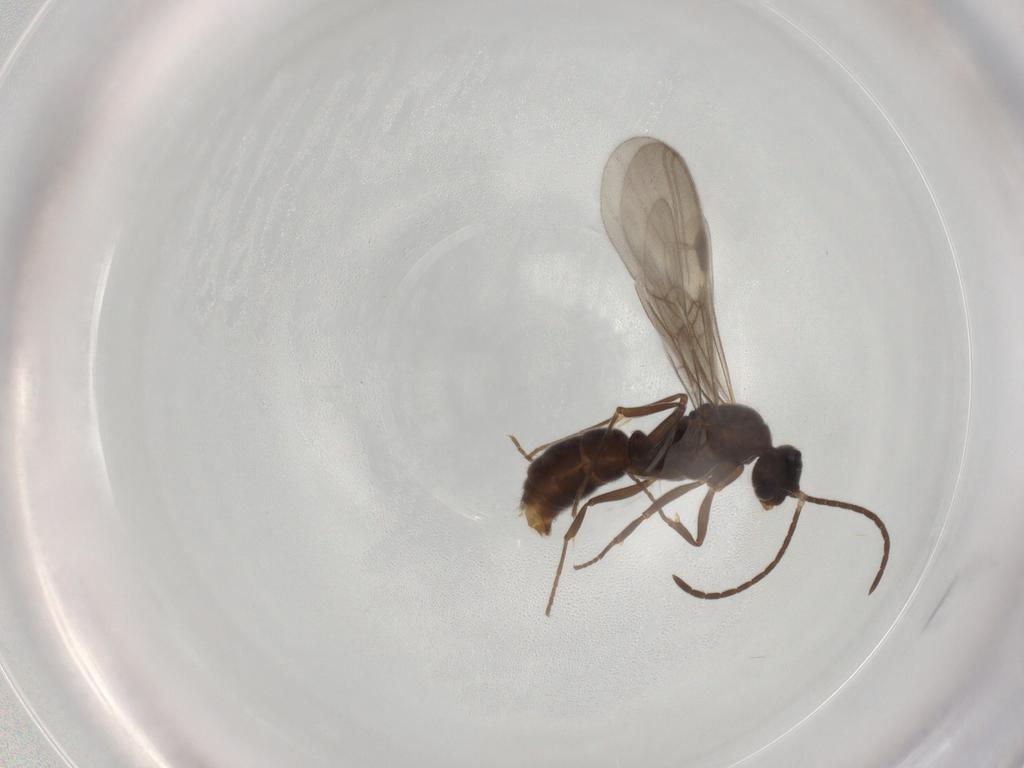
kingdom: Animalia
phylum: Arthropoda
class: Insecta
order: Hymenoptera
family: Formicidae
